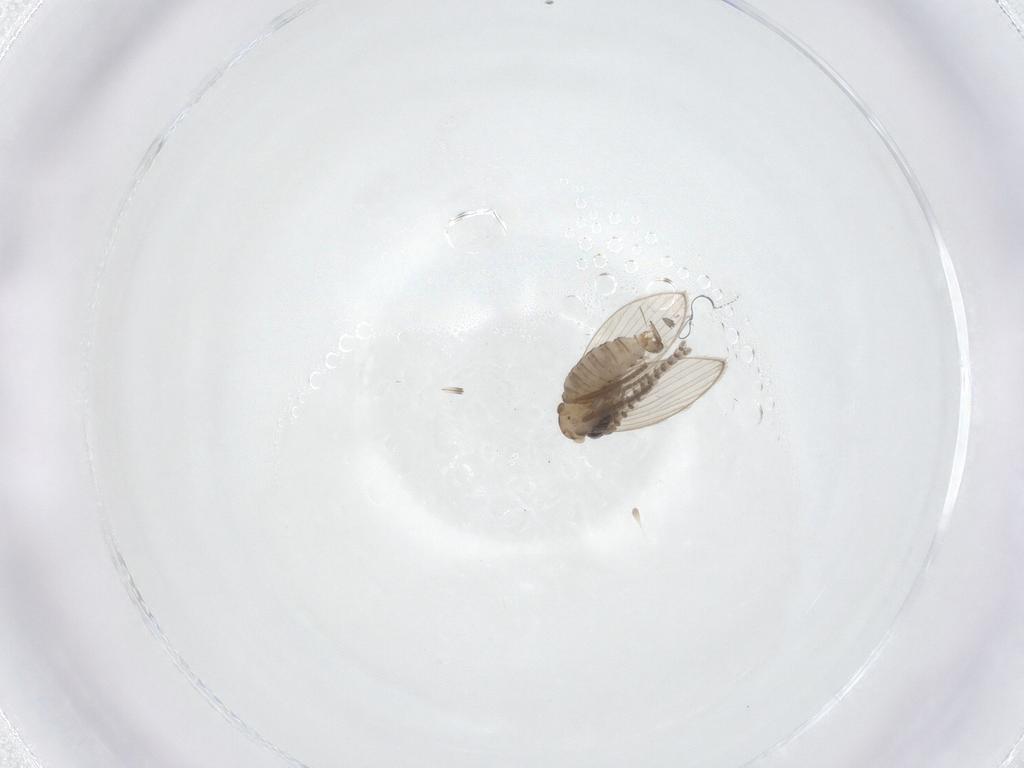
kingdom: Animalia
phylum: Arthropoda
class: Insecta
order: Diptera
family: Psychodidae
